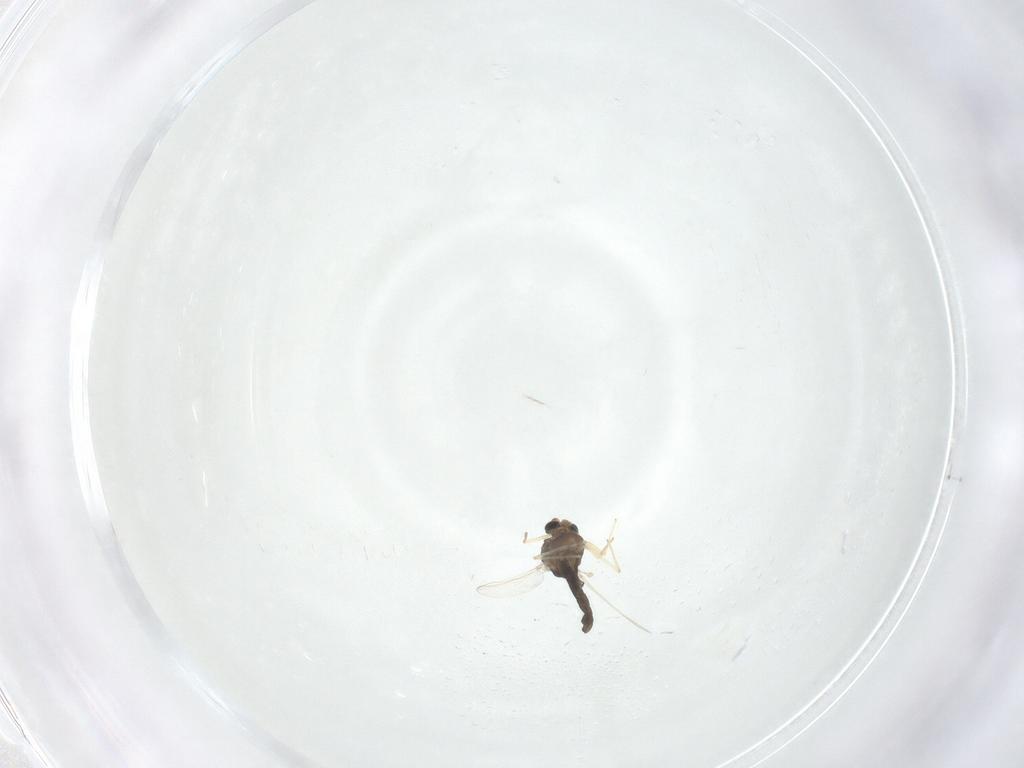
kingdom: Animalia
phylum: Arthropoda
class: Insecta
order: Diptera
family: Chironomidae
